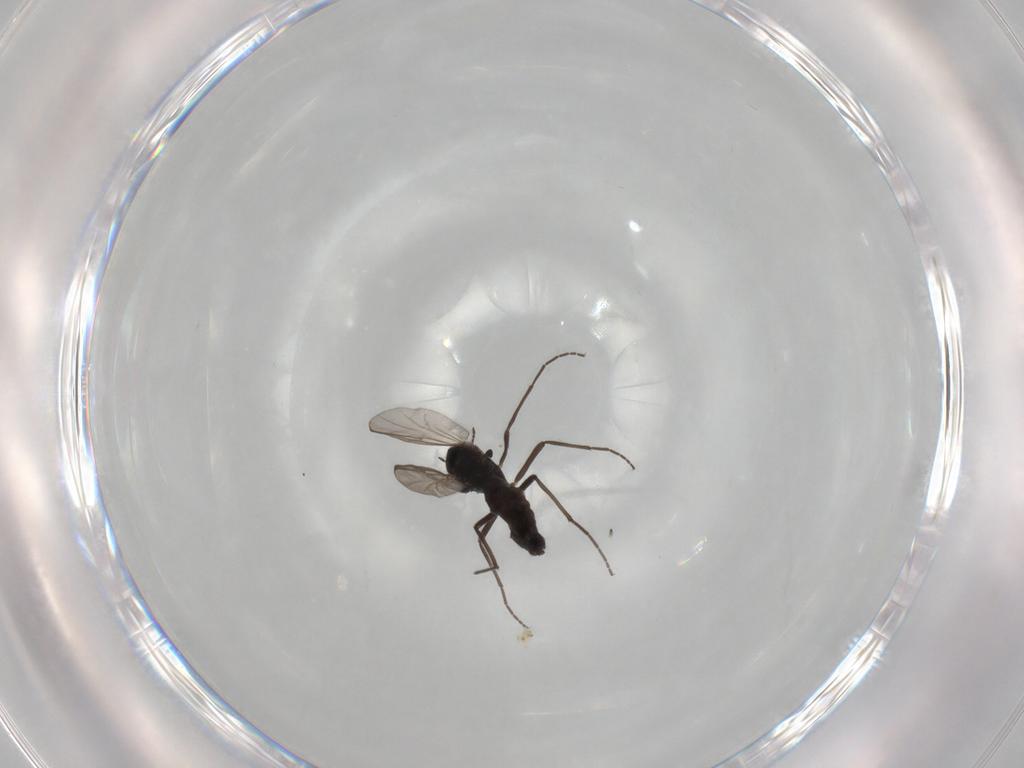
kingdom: Animalia
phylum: Arthropoda
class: Insecta
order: Diptera
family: Chironomidae
